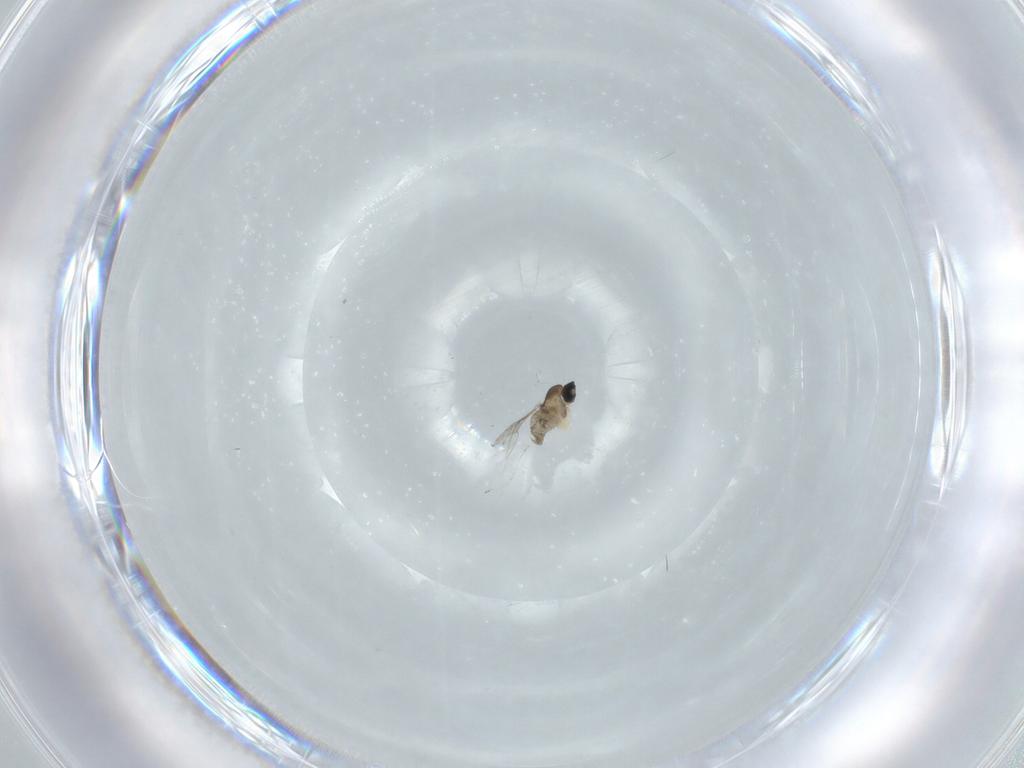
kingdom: Animalia
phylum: Arthropoda
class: Insecta
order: Diptera
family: Cecidomyiidae
